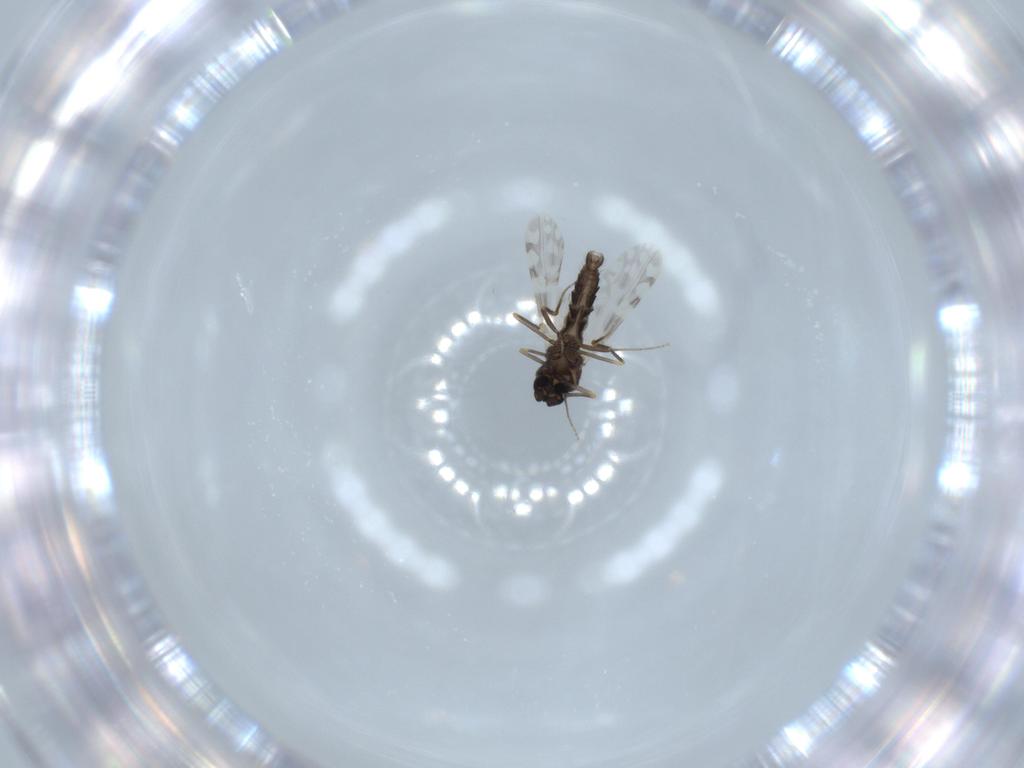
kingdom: Animalia
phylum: Arthropoda
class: Insecta
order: Diptera
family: Ceratopogonidae
